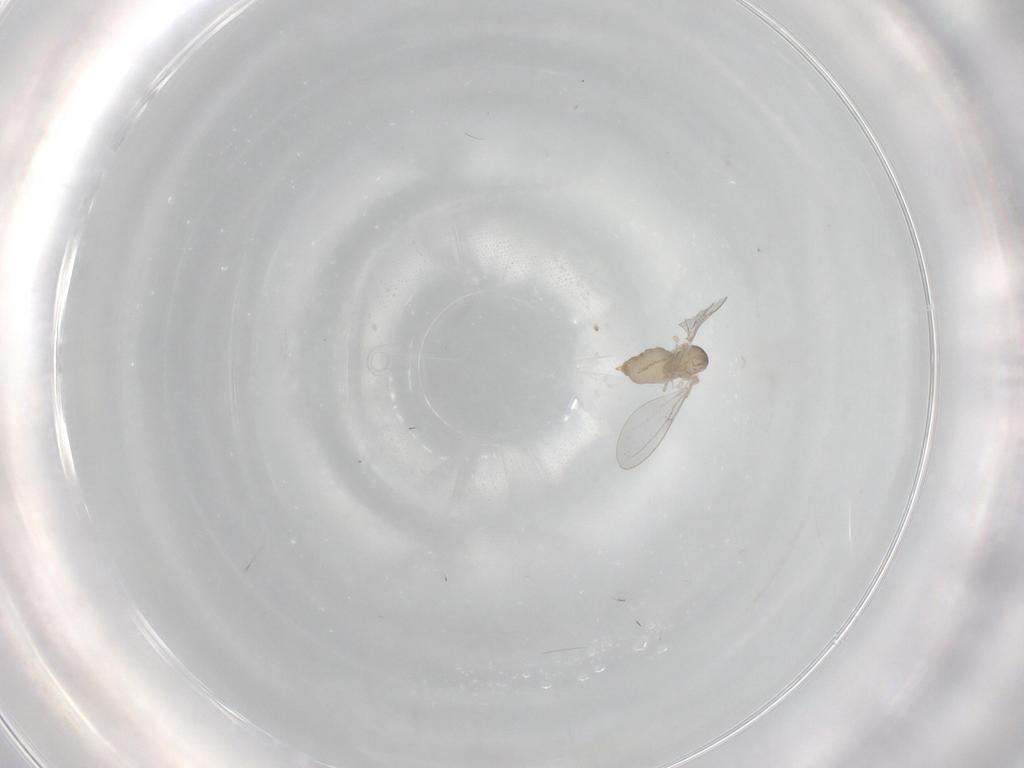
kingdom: Animalia
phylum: Arthropoda
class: Insecta
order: Diptera
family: Cecidomyiidae
